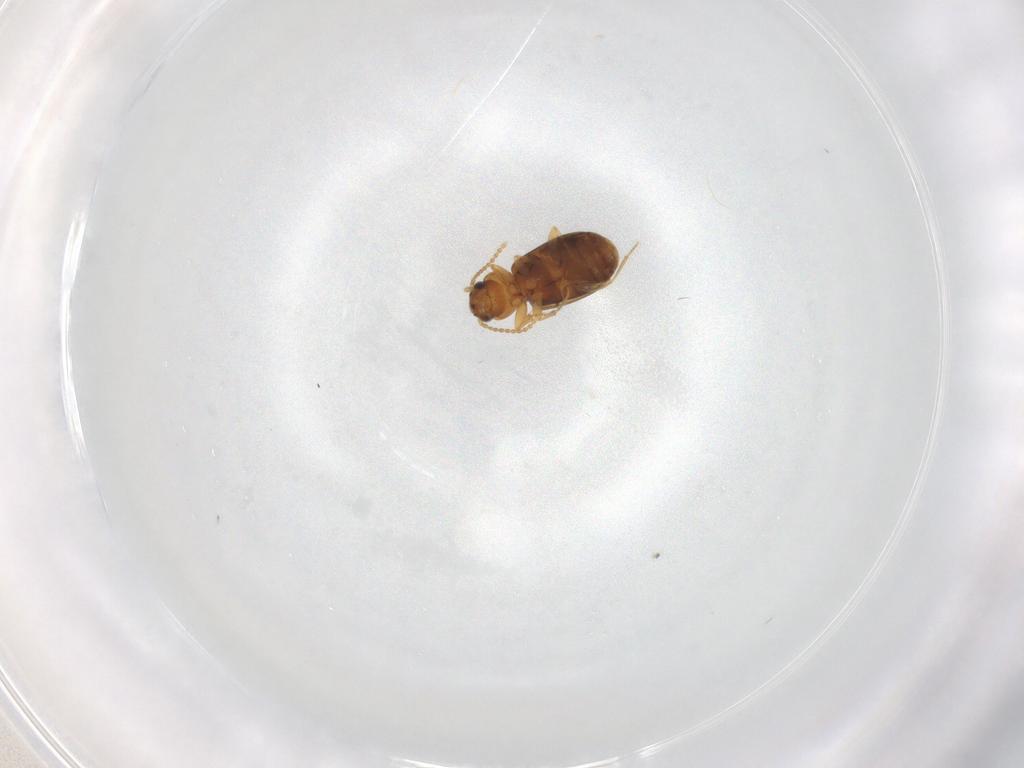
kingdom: Animalia
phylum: Arthropoda
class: Insecta
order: Coleoptera
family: Carabidae
